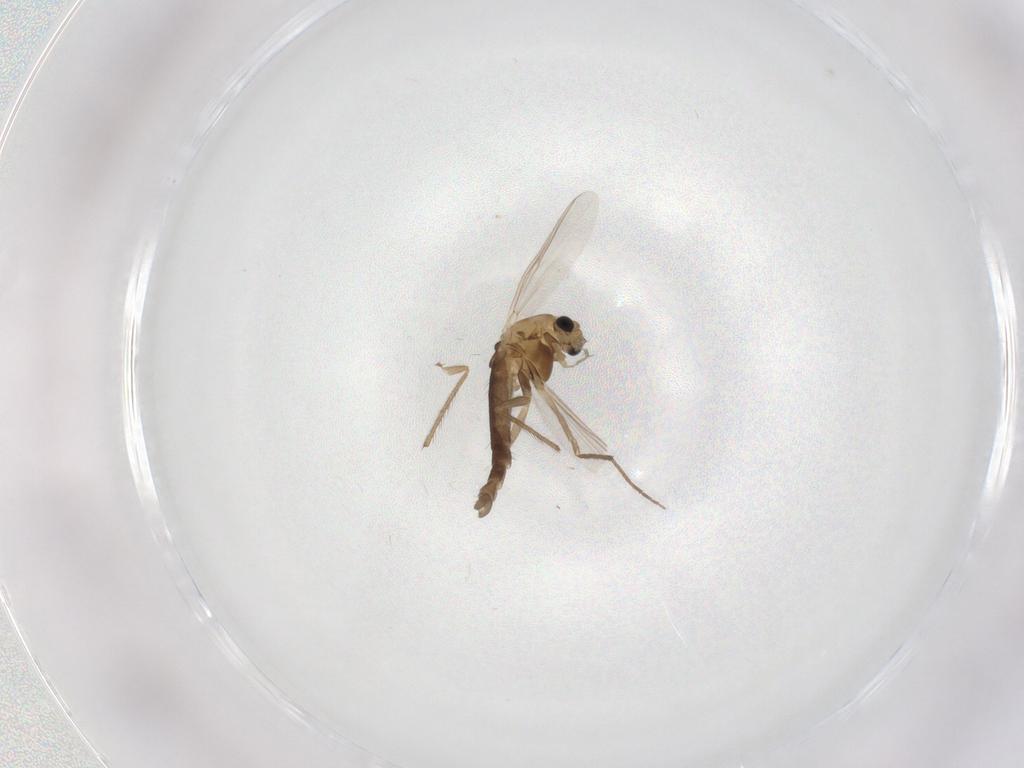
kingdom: Animalia
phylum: Arthropoda
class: Insecta
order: Diptera
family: Chironomidae
